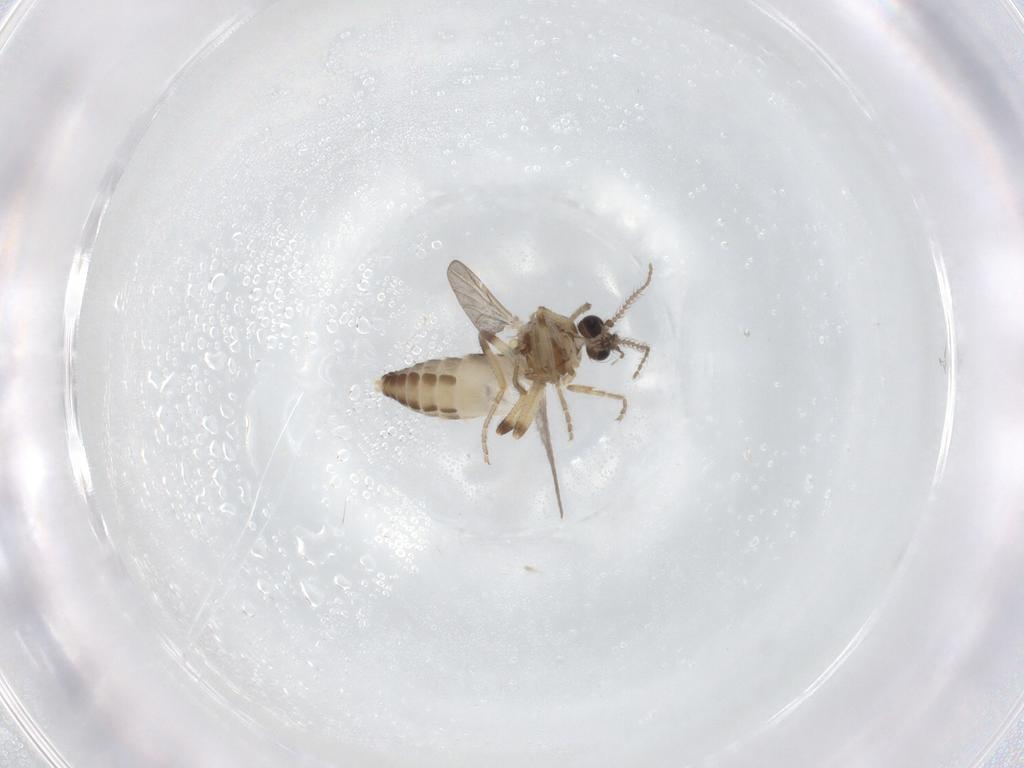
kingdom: Animalia
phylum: Arthropoda
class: Insecta
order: Diptera
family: Ceratopogonidae
